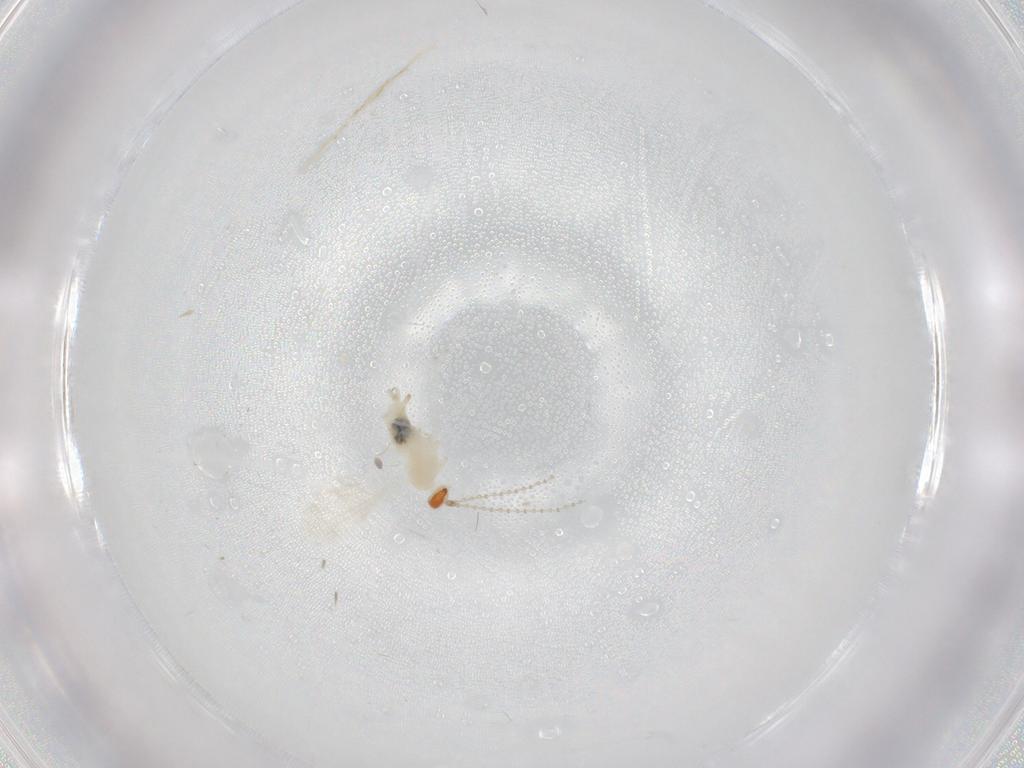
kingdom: Animalia
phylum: Arthropoda
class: Insecta
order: Diptera
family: Cecidomyiidae
